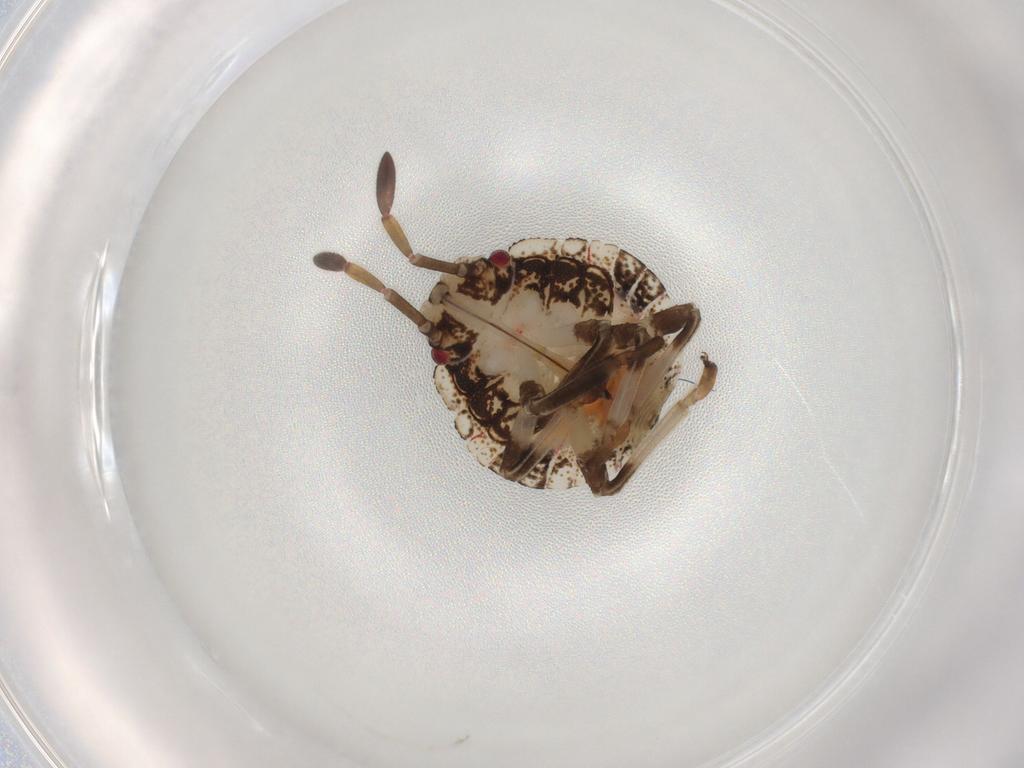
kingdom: Animalia
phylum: Arthropoda
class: Insecta
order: Hemiptera
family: Pentatomidae
